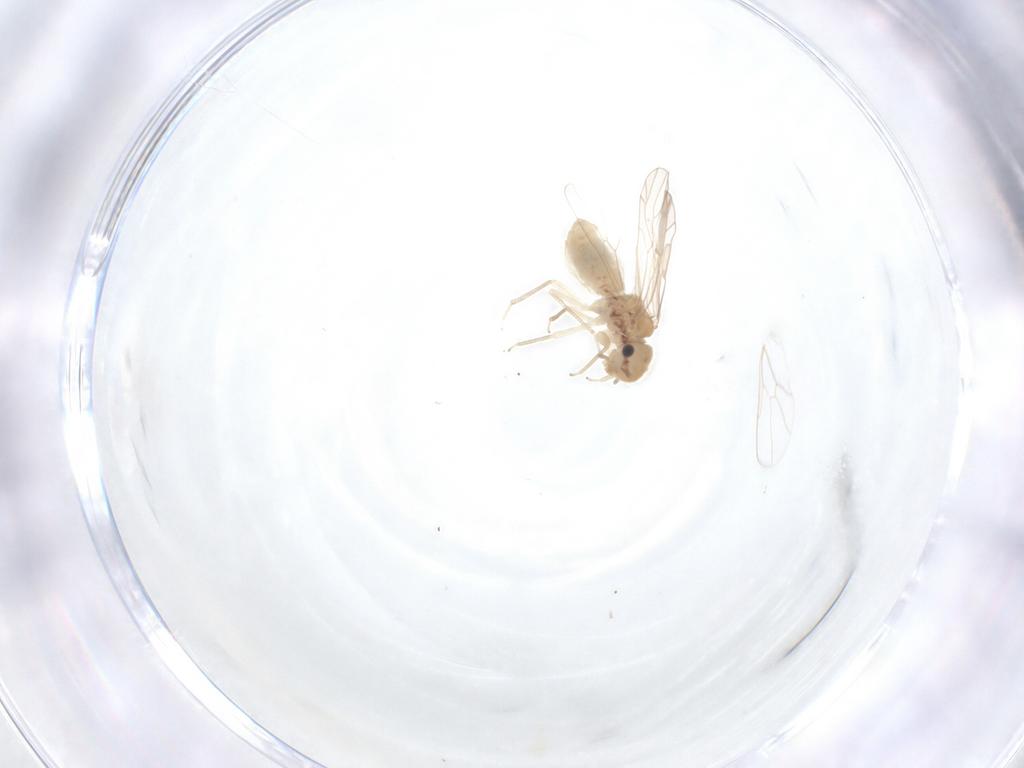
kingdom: Animalia
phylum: Arthropoda
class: Insecta
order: Psocodea
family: Ectopsocidae
